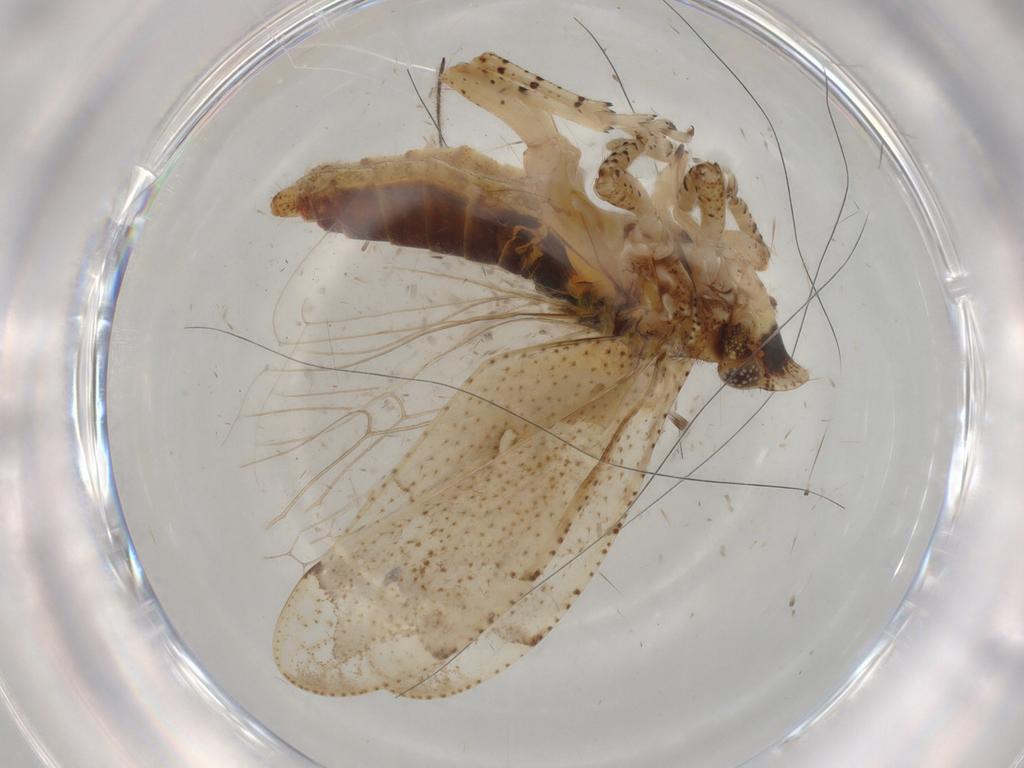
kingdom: Animalia
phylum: Arthropoda
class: Insecta
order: Hemiptera
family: Tettigometridae
